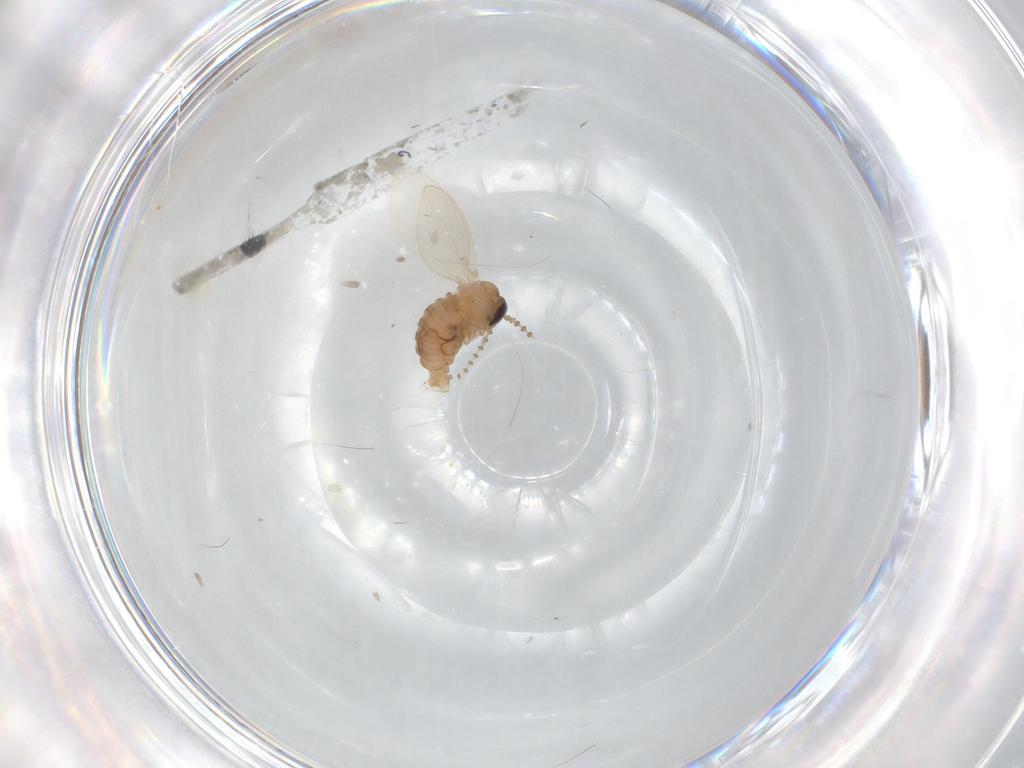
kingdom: Animalia
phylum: Arthropoda
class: Insecta
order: Diptera
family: Psychodidae
